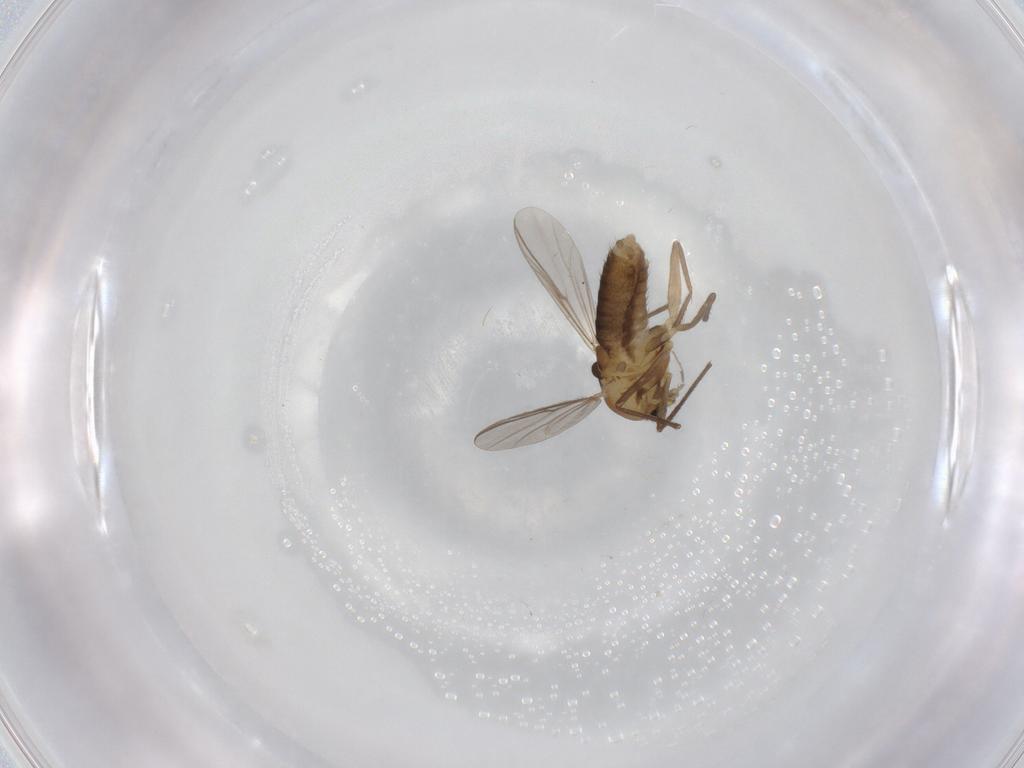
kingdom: Animalia
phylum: Arthropoda
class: Insecta
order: Diptera
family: Chironomidae
